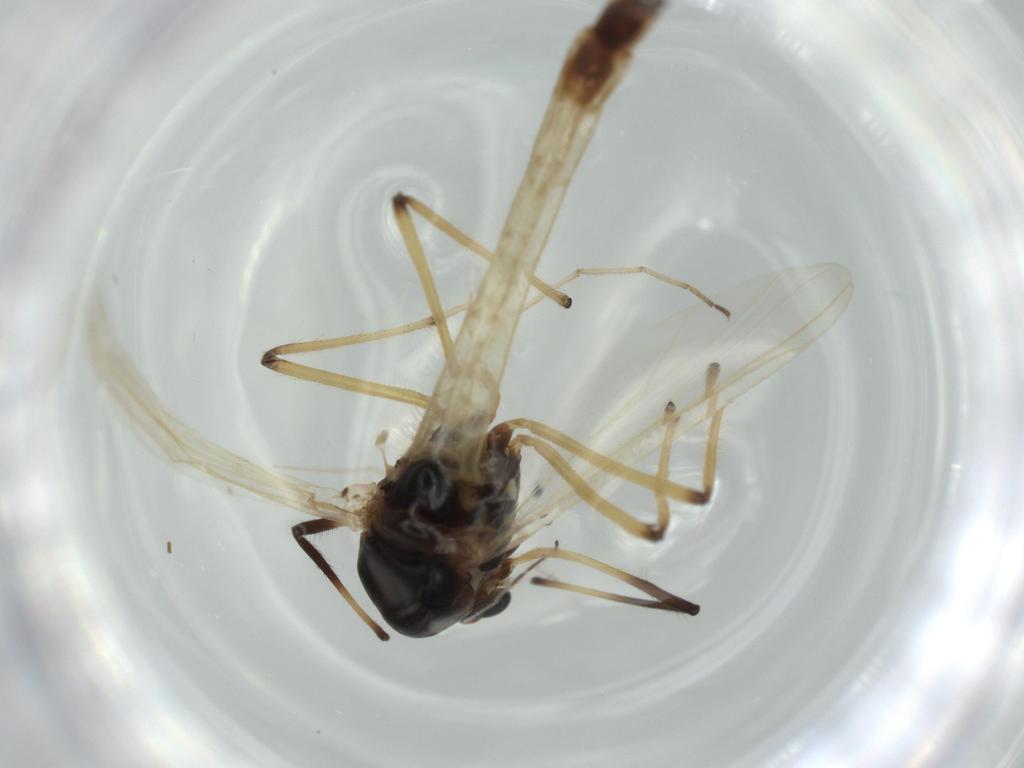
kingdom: Animalia
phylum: Arthropoda
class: Insecta
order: Diptera
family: Chironomidae
